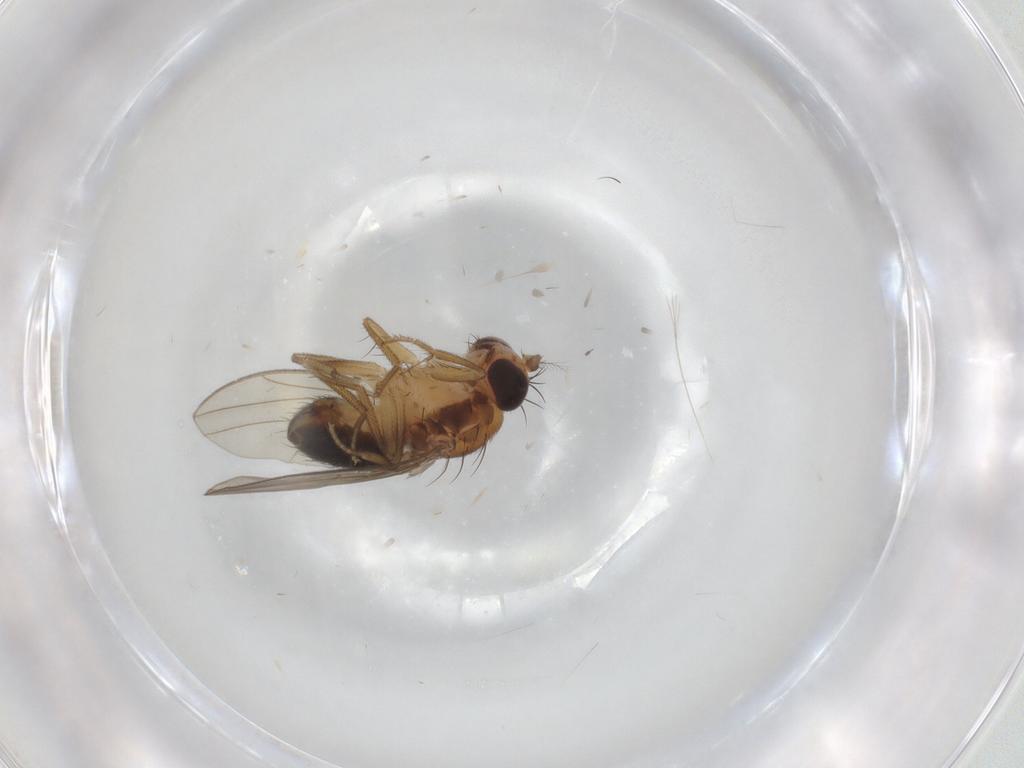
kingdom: Animalia
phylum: Arthropoda
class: Insecta
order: Diptera
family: Drosophilidae
